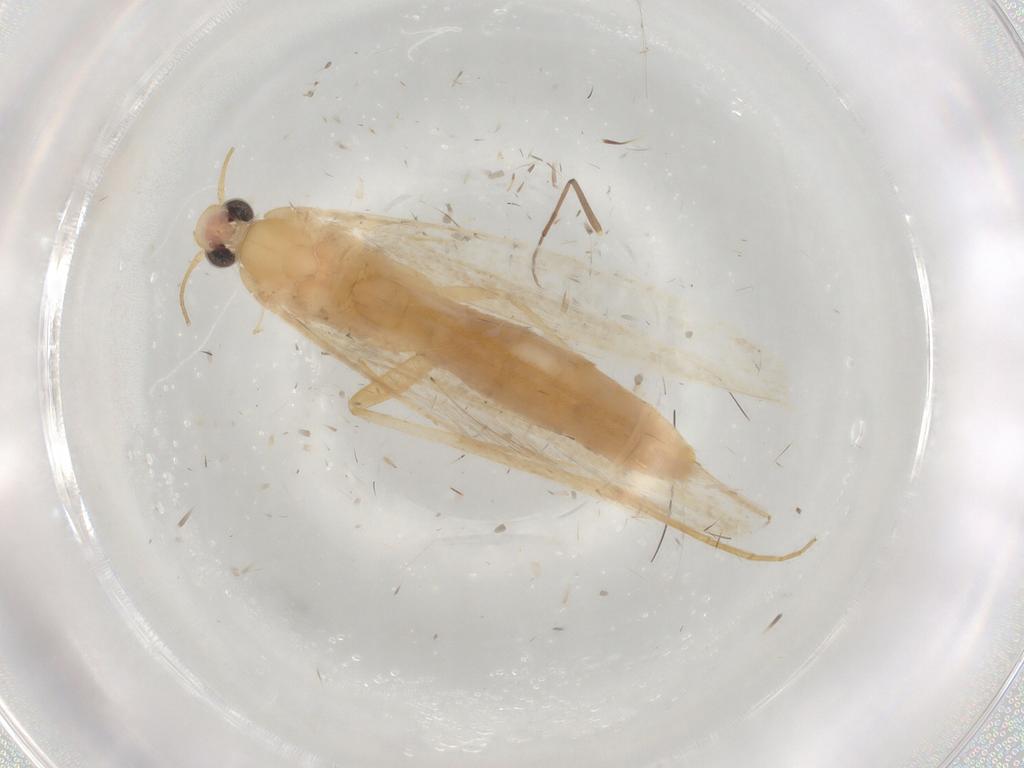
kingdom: Animalia
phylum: Arthropoda
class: Insecta
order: Lepidoptera
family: Batrachedridae
